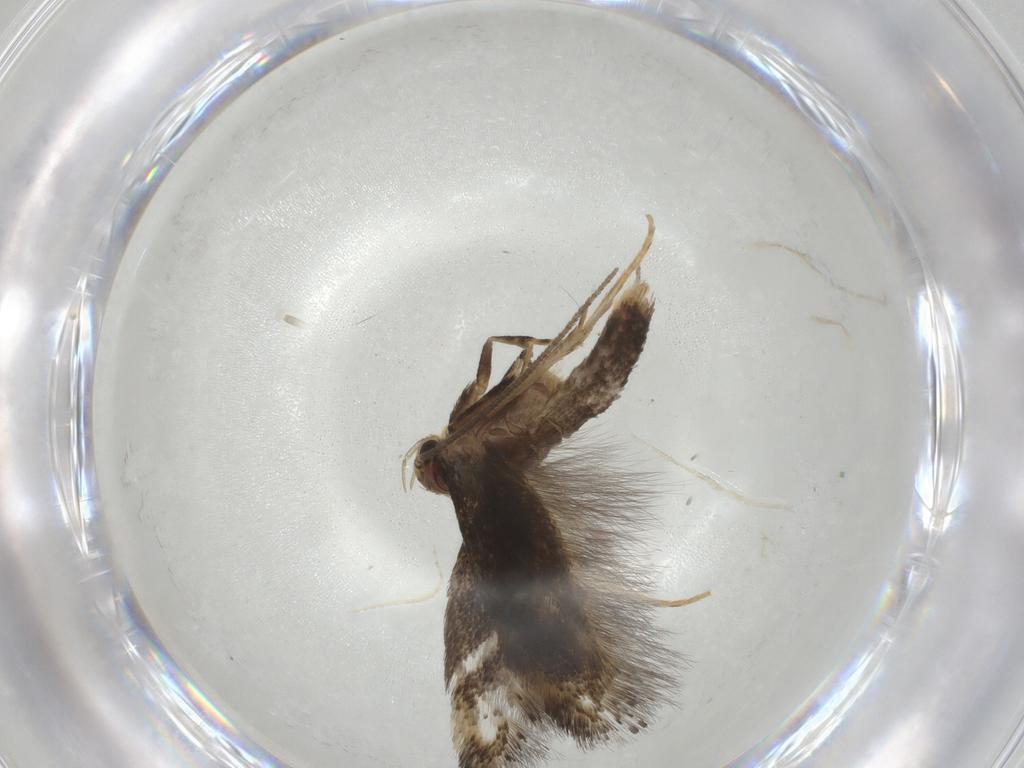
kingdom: Animalia
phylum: Arthropoda
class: Insecta
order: Lepidoptera
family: Elachistidae
